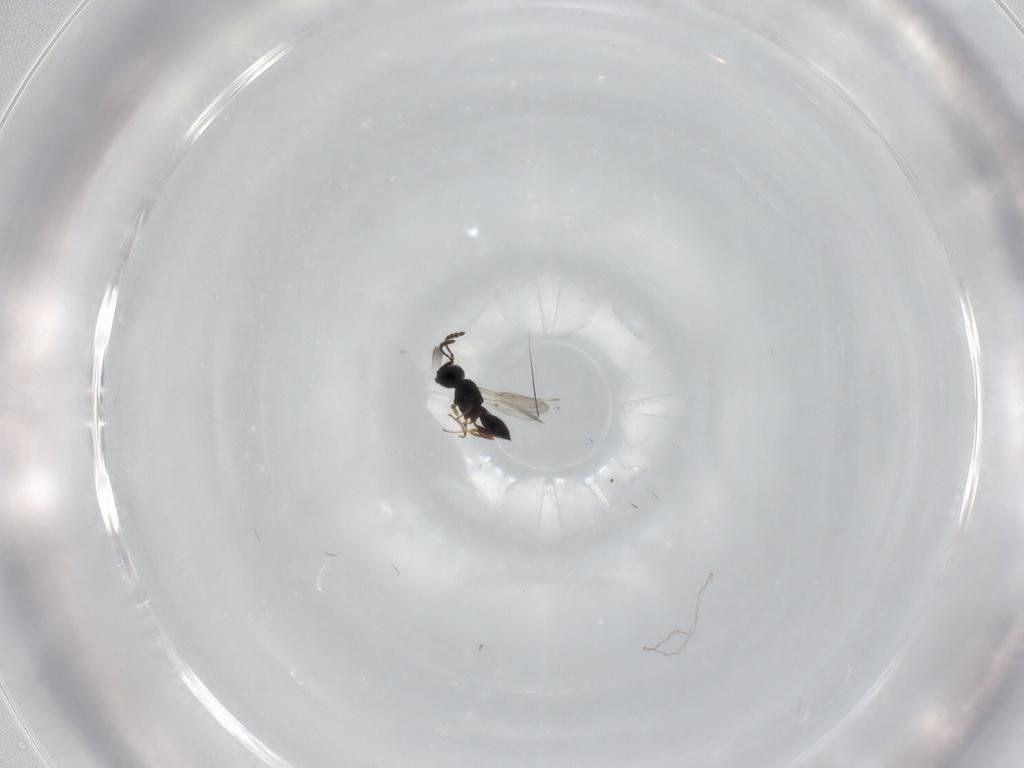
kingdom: Animalia
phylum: Arthropoda
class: Insecta
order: Hymenoptera
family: Scelionidae
